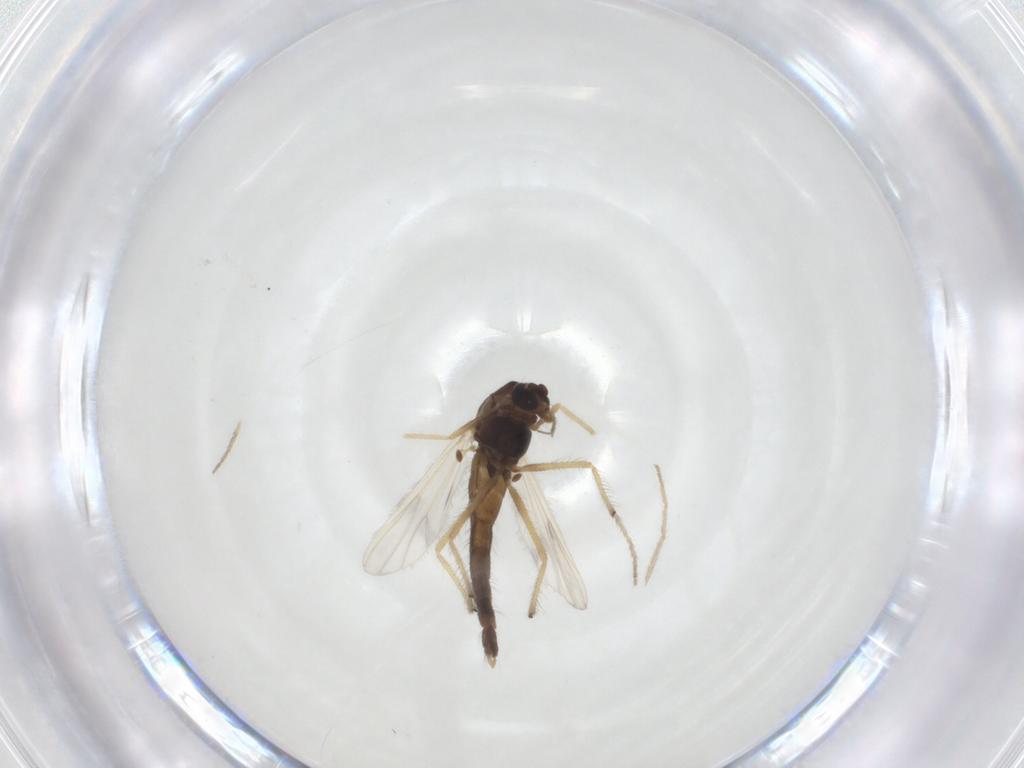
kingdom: Animalia
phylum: Arthropoda
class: Insecta
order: Diptera
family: Chironomidae
